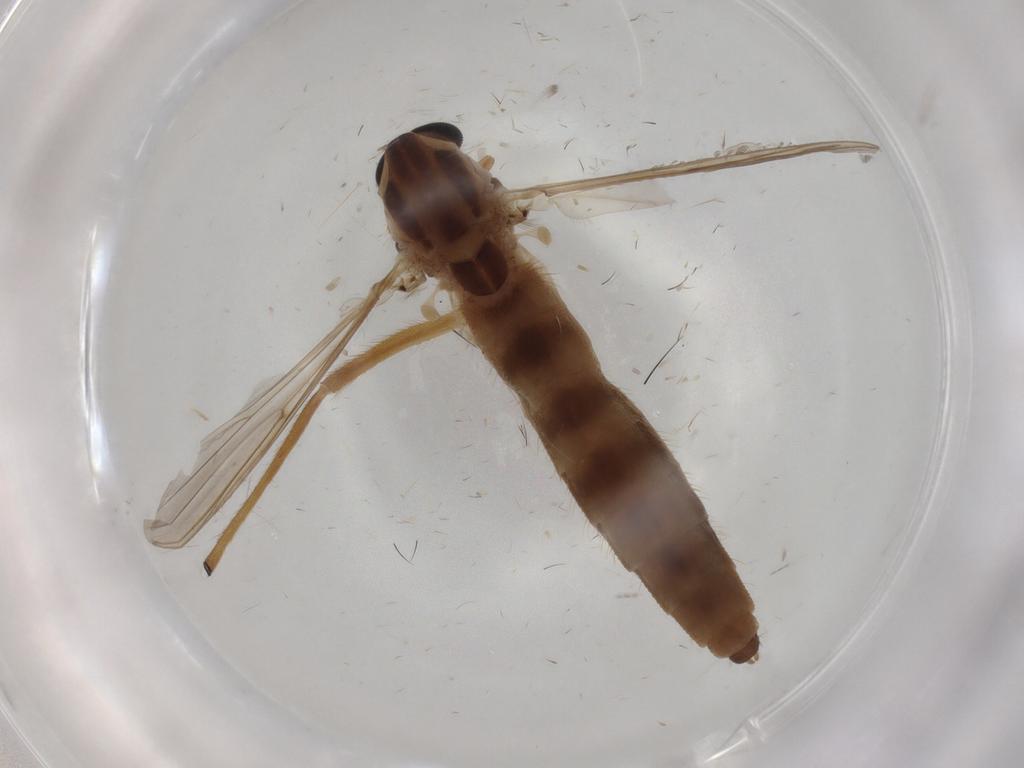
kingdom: Animalia
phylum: Arthropoda
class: Insecta
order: Diptera
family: Chironomidae
